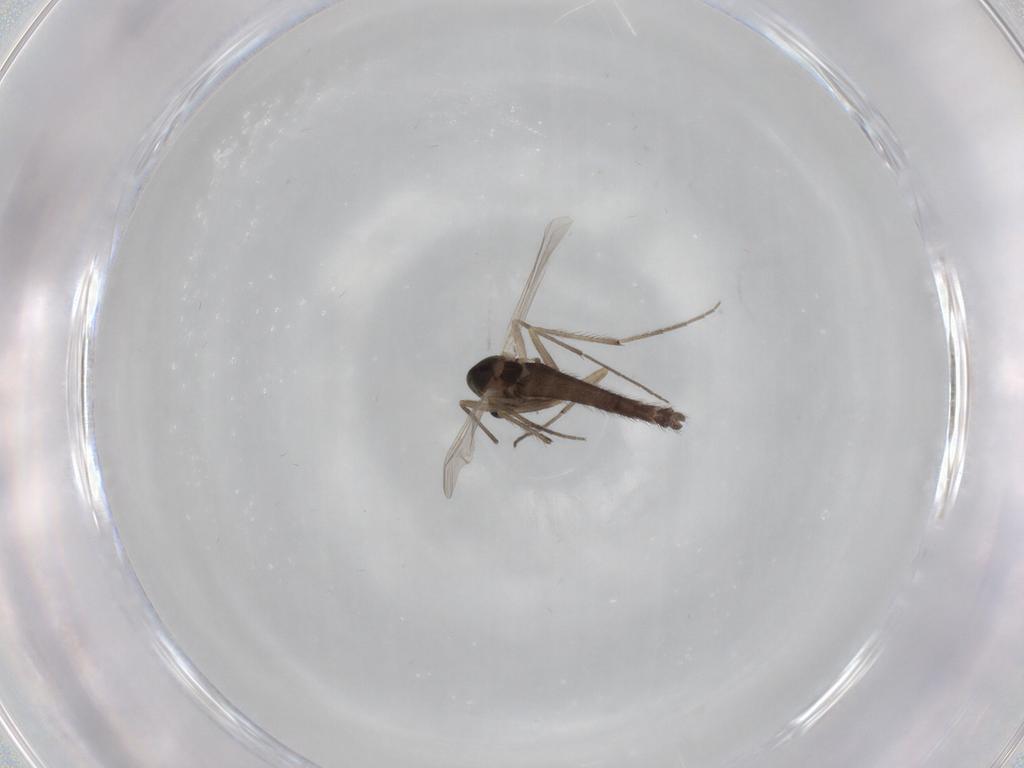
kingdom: Animalia
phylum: Arthropoda
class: Insecta
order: Diptera
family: Chironomidae
